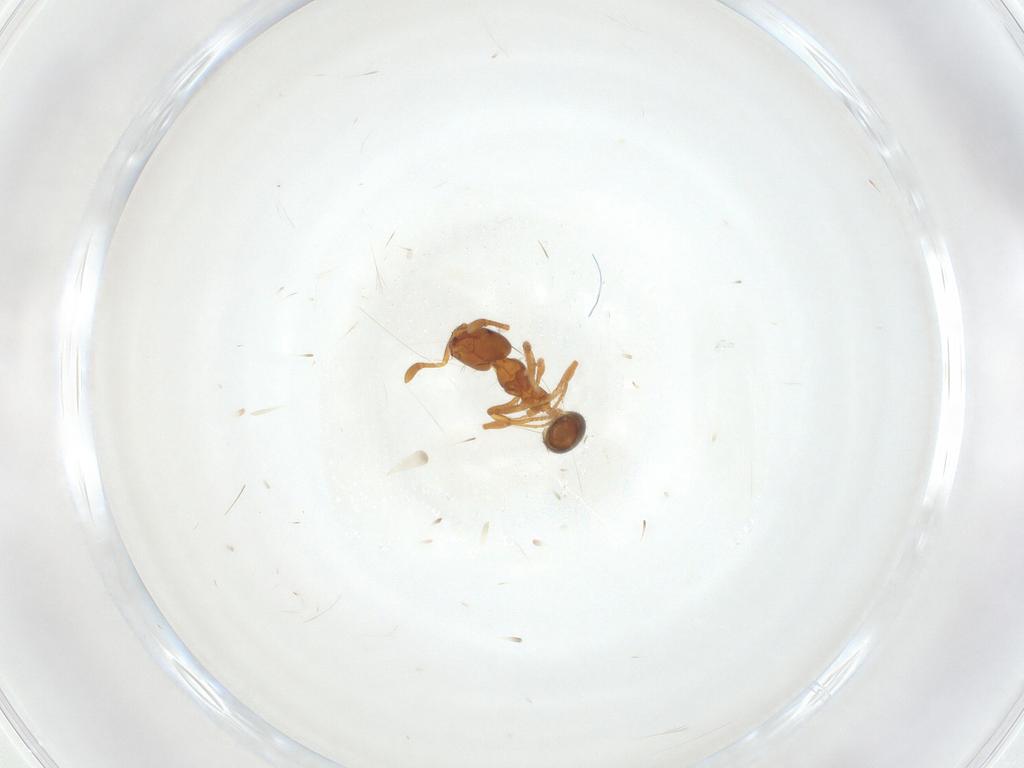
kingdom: Animalia
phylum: Arthropoda
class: Insecta
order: Hymenoptera
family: Formicidae
